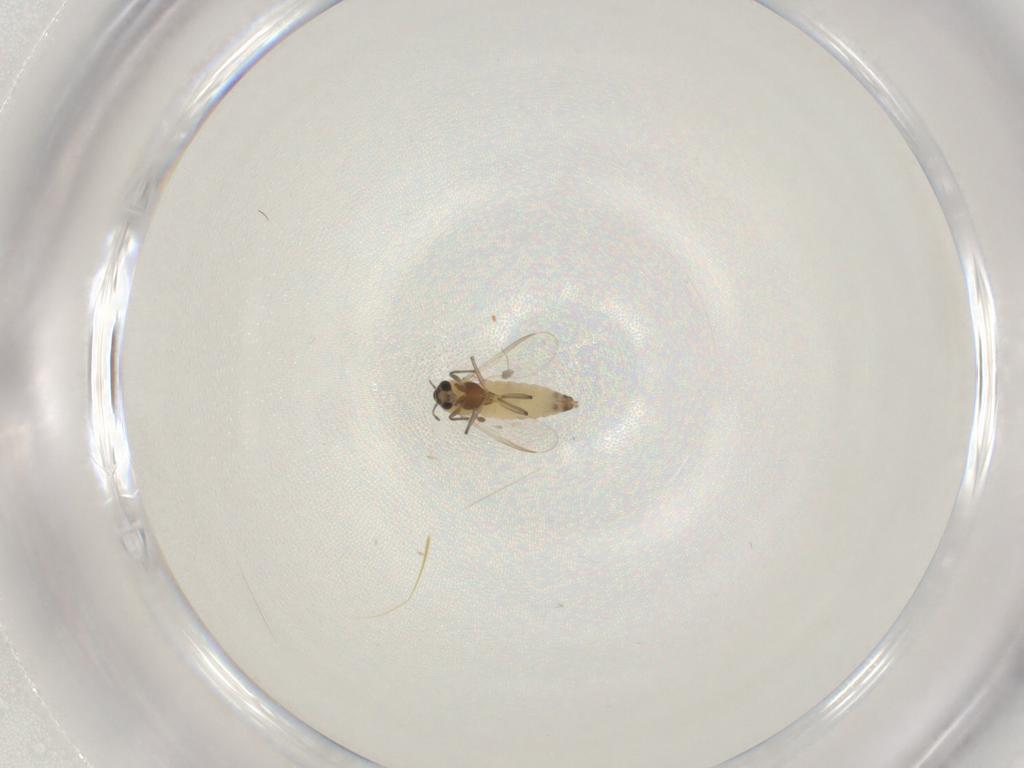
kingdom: Animalia
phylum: Arthropoda
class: Insecta
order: Diptera
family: Chironomidae
